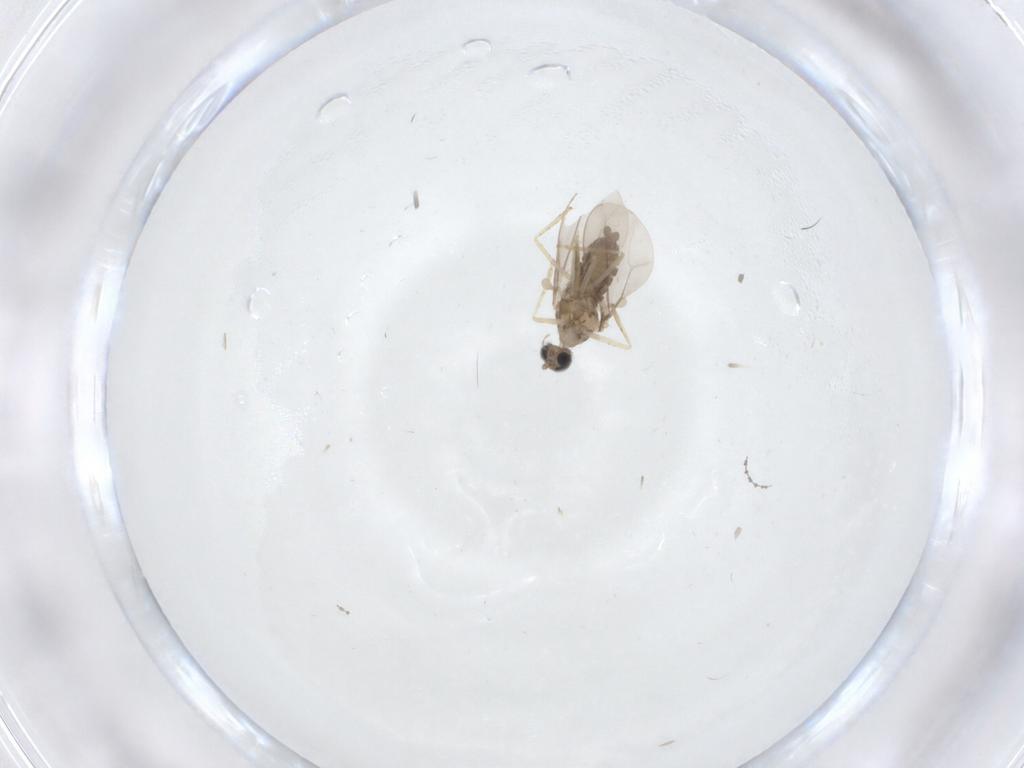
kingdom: Animalia
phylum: Arthropoda
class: Insecta
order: Diptera
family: Cecidomyiidae
